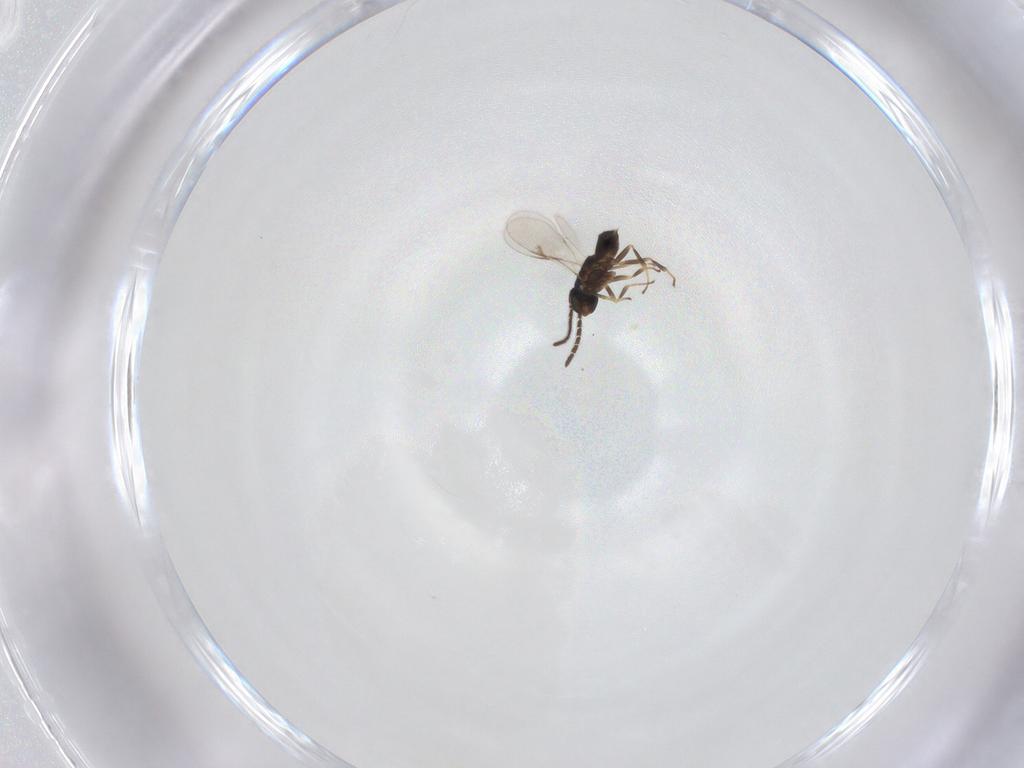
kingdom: Animalia
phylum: Arthropoda
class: Insecta
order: Hymenoptera
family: Encyrtidae
